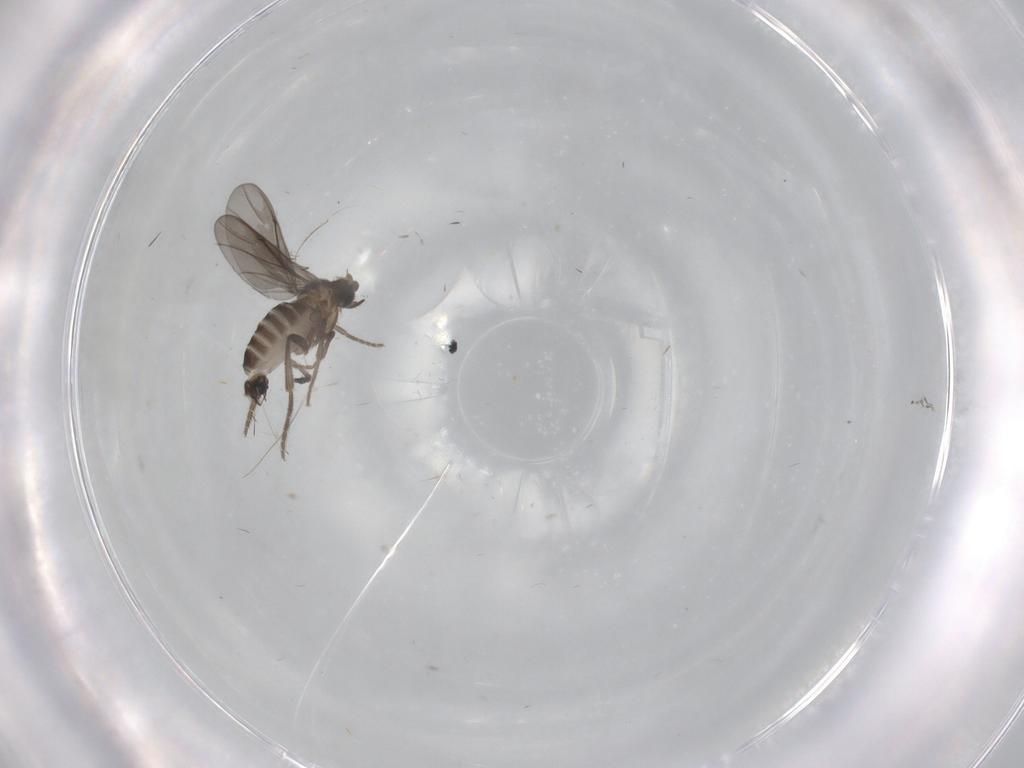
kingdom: Animalia
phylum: Arthropoda
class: Insecta
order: Diptera
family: Phoridae
